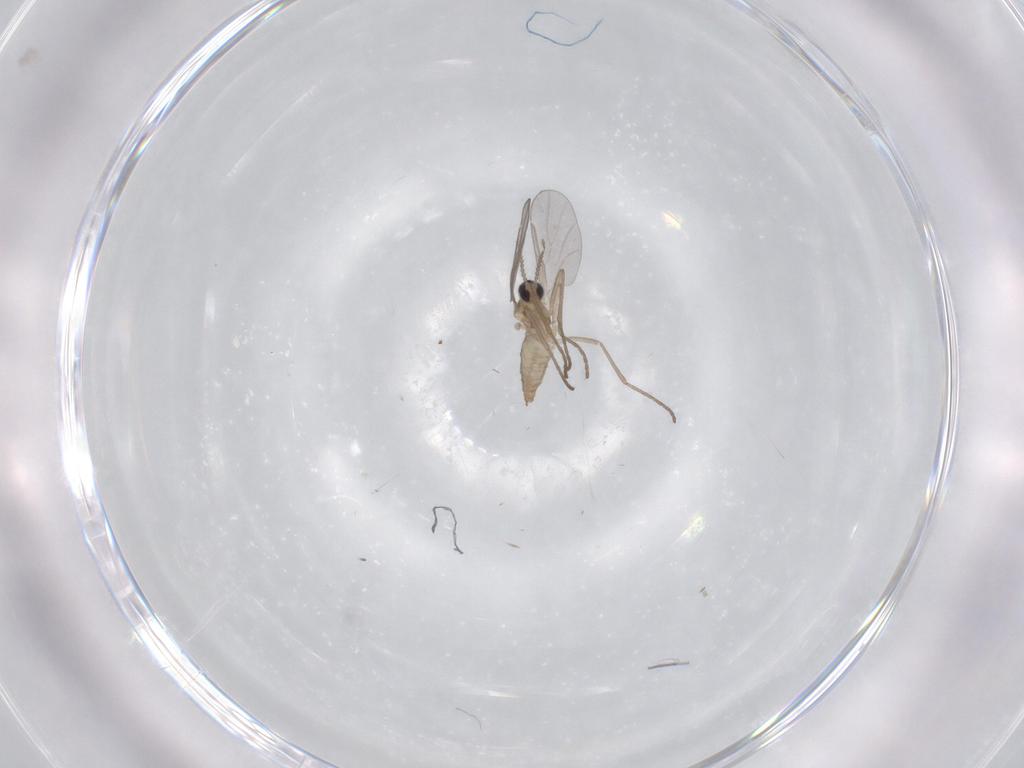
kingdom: Animalia
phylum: Arthropoda
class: Insecta
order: Diptera
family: Cecidomyiidae
